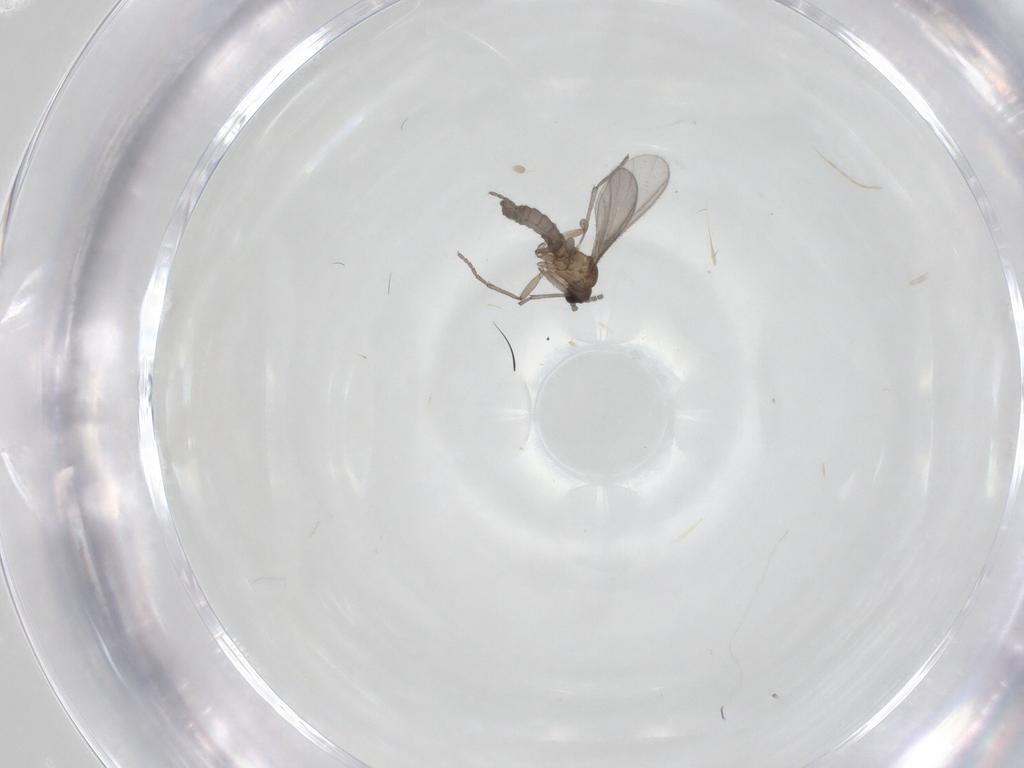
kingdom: Animalia
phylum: Arthropoda
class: Insecta
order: Diptera
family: Sciaridae
